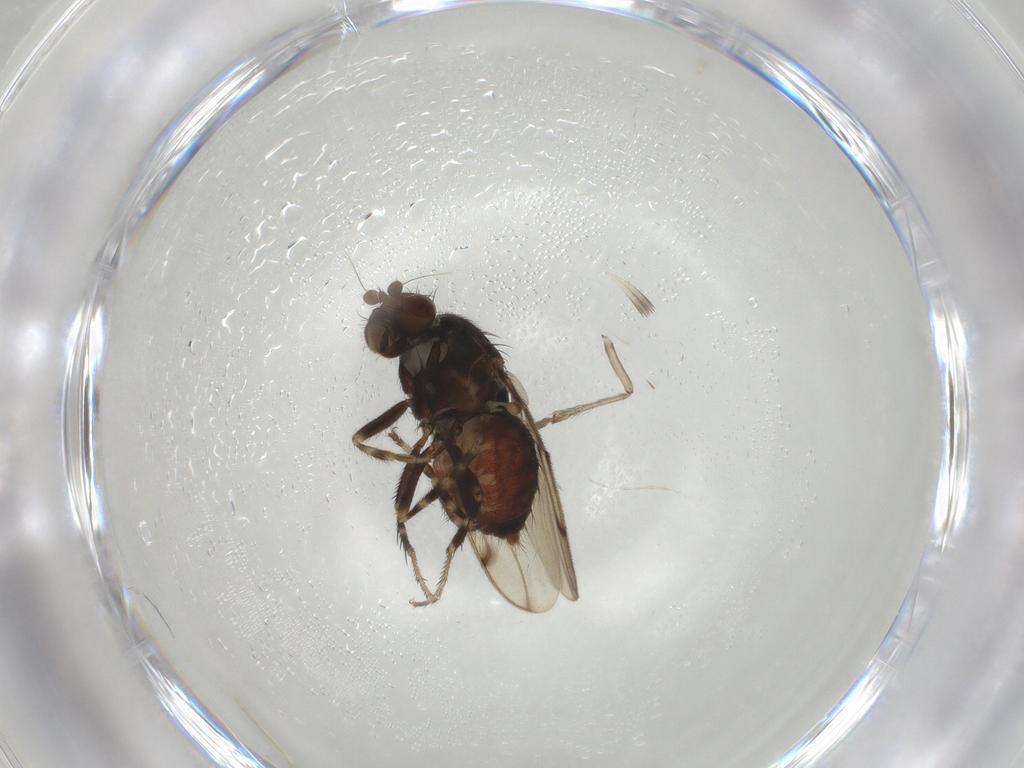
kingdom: Animalia
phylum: Arthropoda
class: Insecta
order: Diptera
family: Sphaeroceridae
